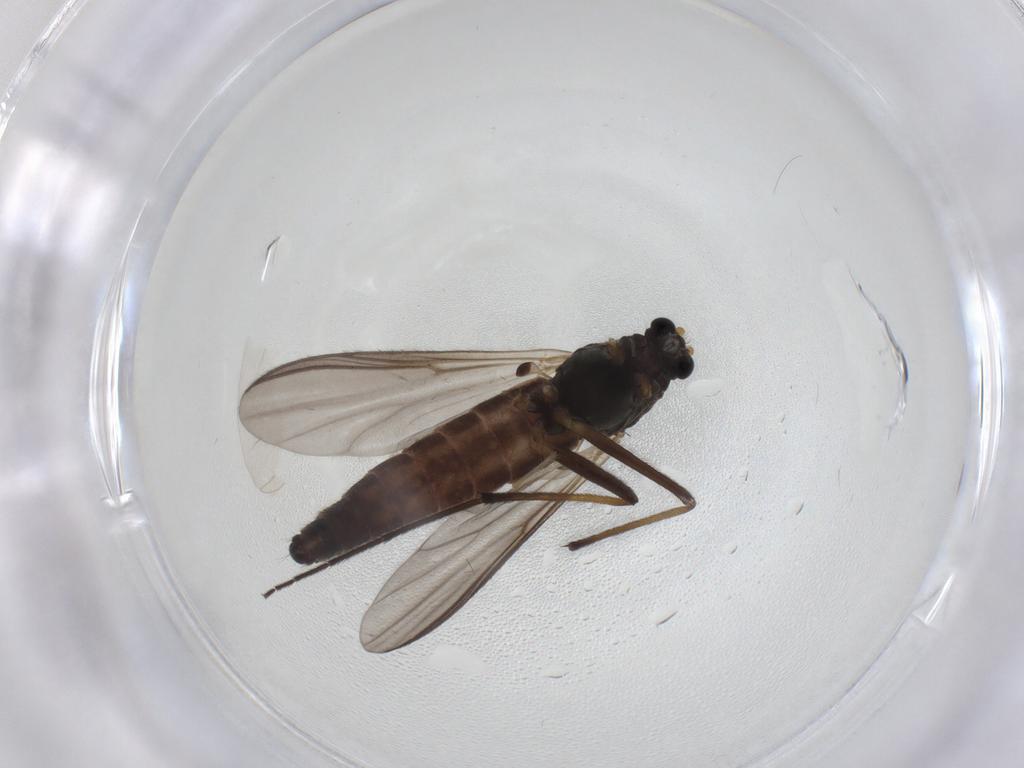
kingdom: Animalia
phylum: Arthropoda
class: Insecta
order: Diptera
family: Chironomidae
